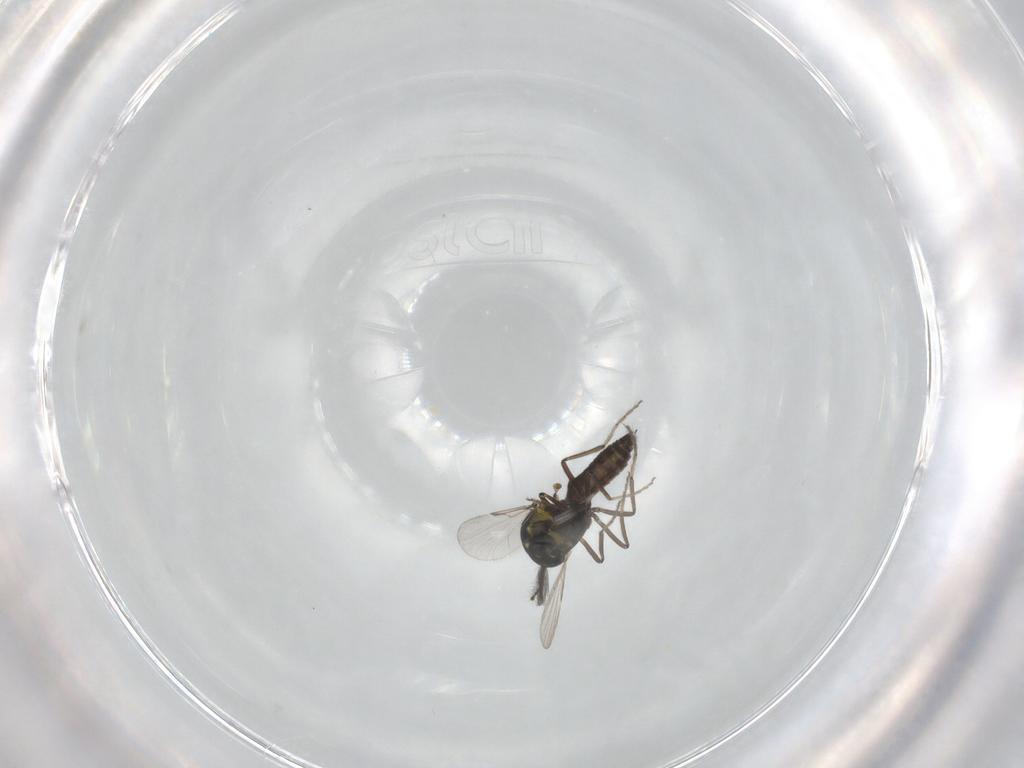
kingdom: Animalia
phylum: Arthropoda
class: Insecta
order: Diptera
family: Ceratopogonidae
